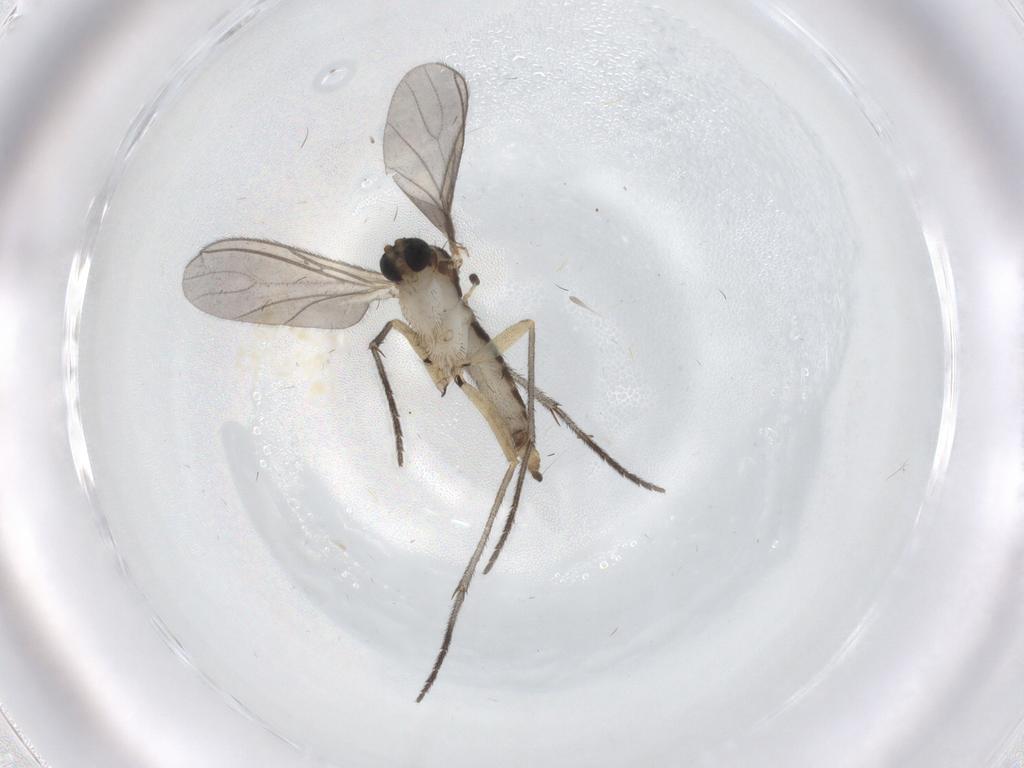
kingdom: Animalia
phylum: Arthropoda
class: Insecta
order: Diptera
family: Sciaridae
